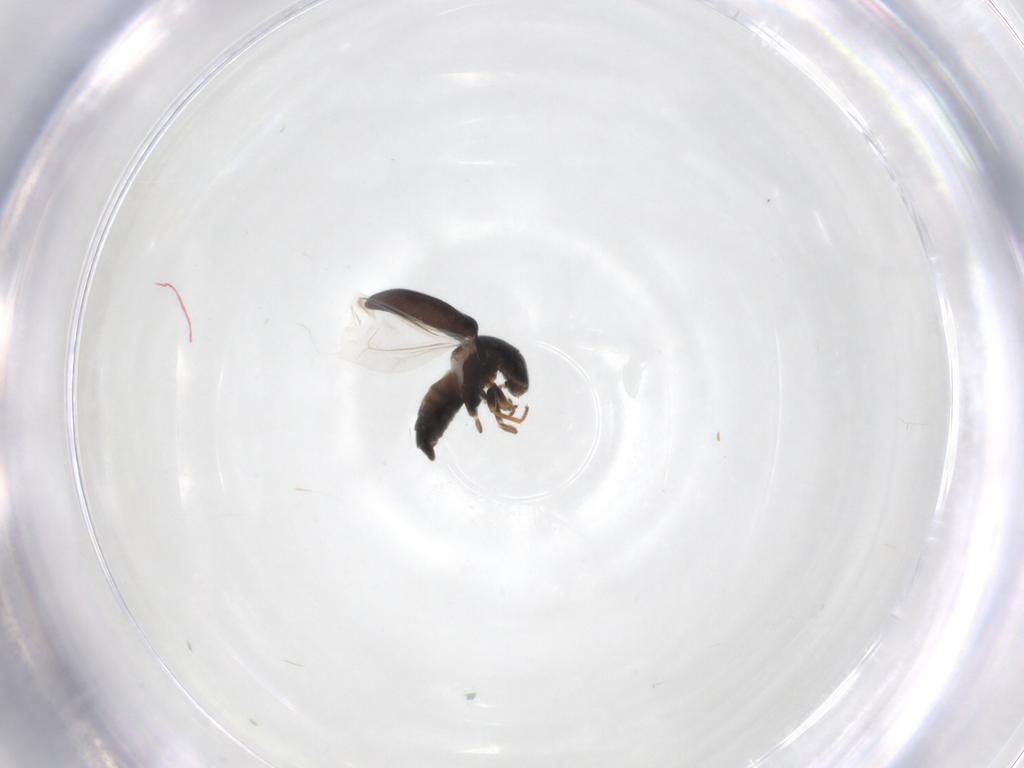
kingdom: Animalia
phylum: Arthropoda
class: Insecta
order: Coleoptera
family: Melyridae
